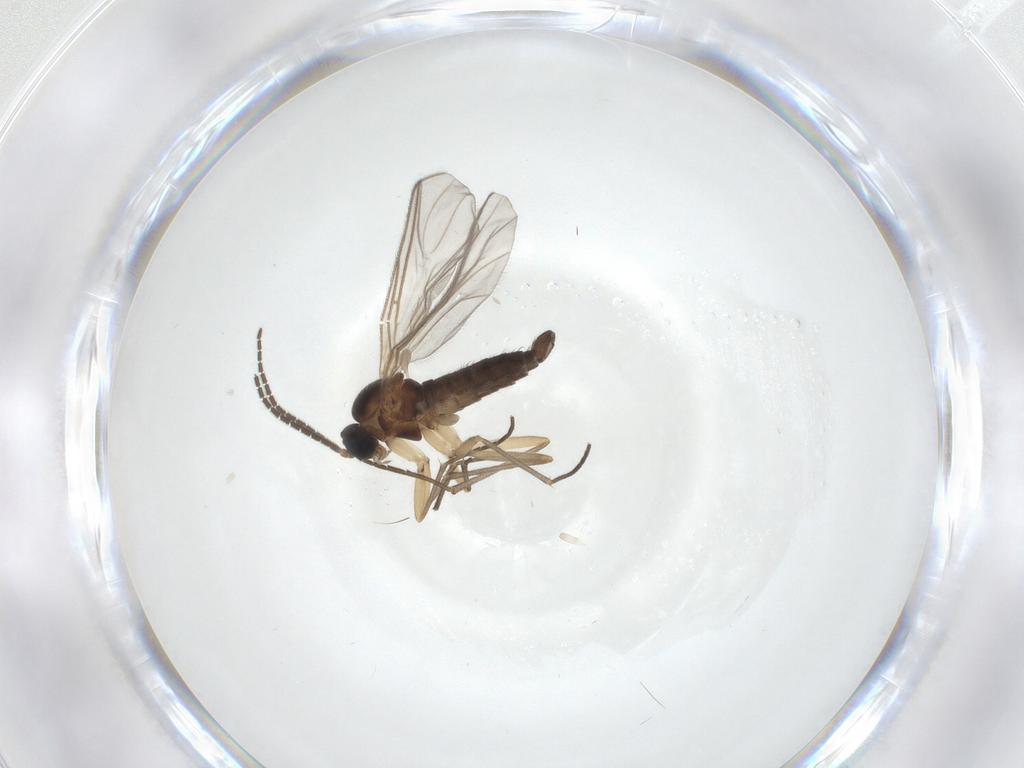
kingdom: Animalia
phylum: Arthropoda
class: Insecta
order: Diptera
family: Sciaridae
